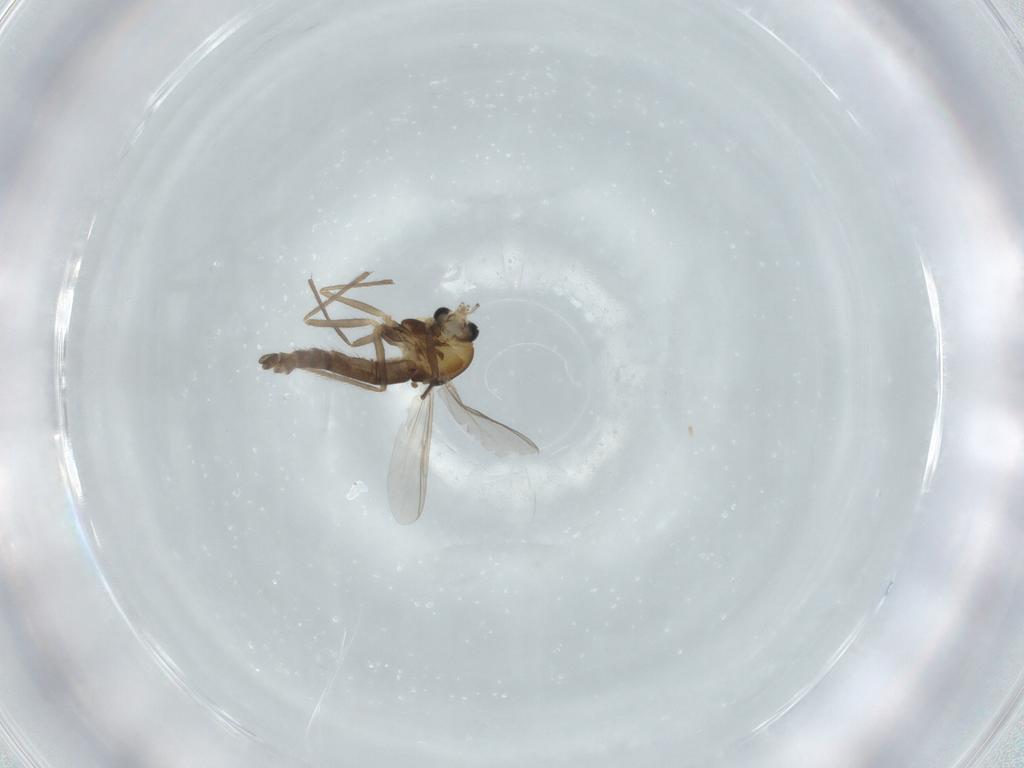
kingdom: Animalia
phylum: Arthropoda
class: Insecta
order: Diptera
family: Chironomidae
